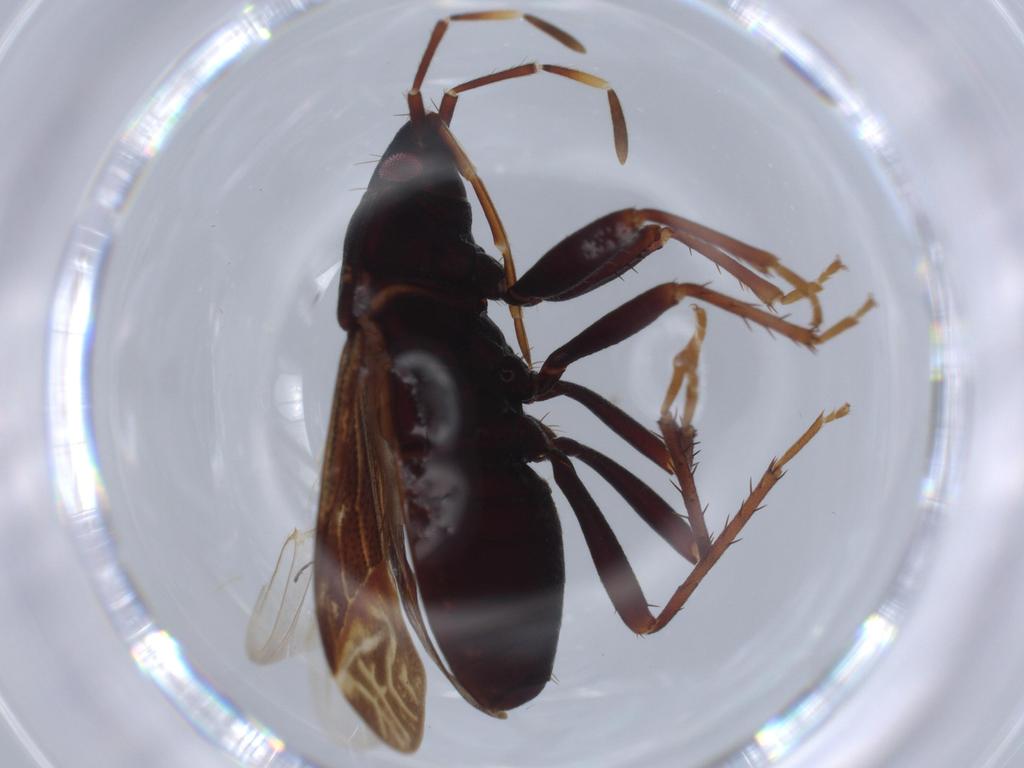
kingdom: Animalia
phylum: Arthropoda
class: Insecta
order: Hemiptera
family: Rhyparochromidae
